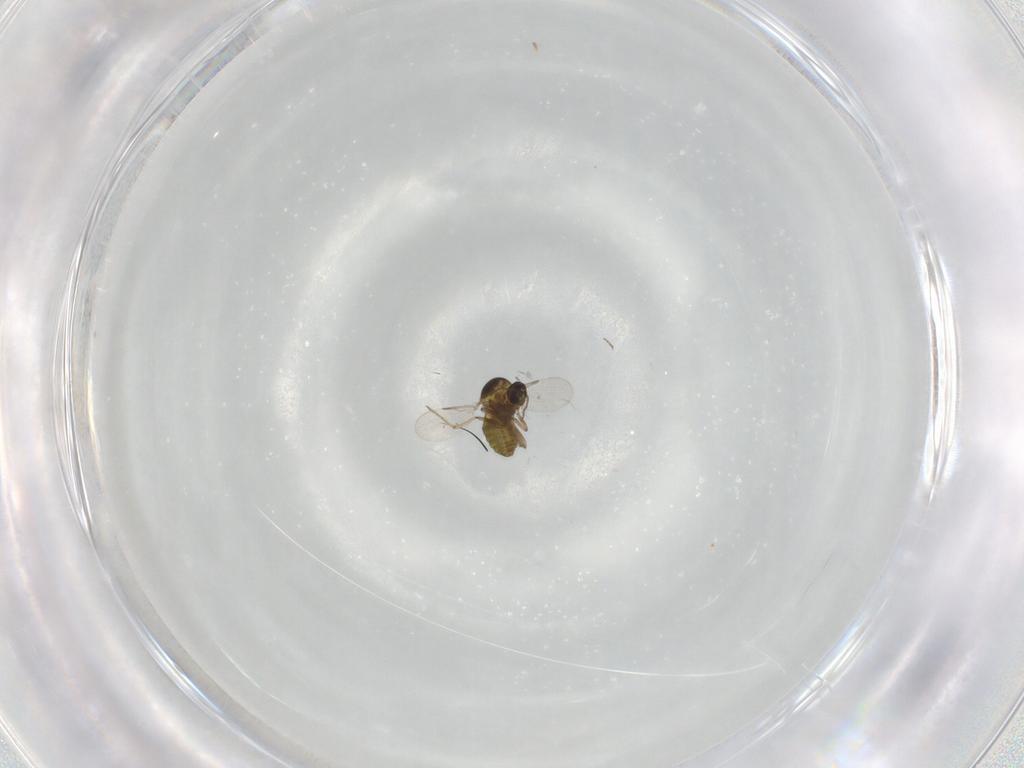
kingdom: Animalia
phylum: Arthropoda
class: Insecta
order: Diptera
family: Ceratopogonidae
